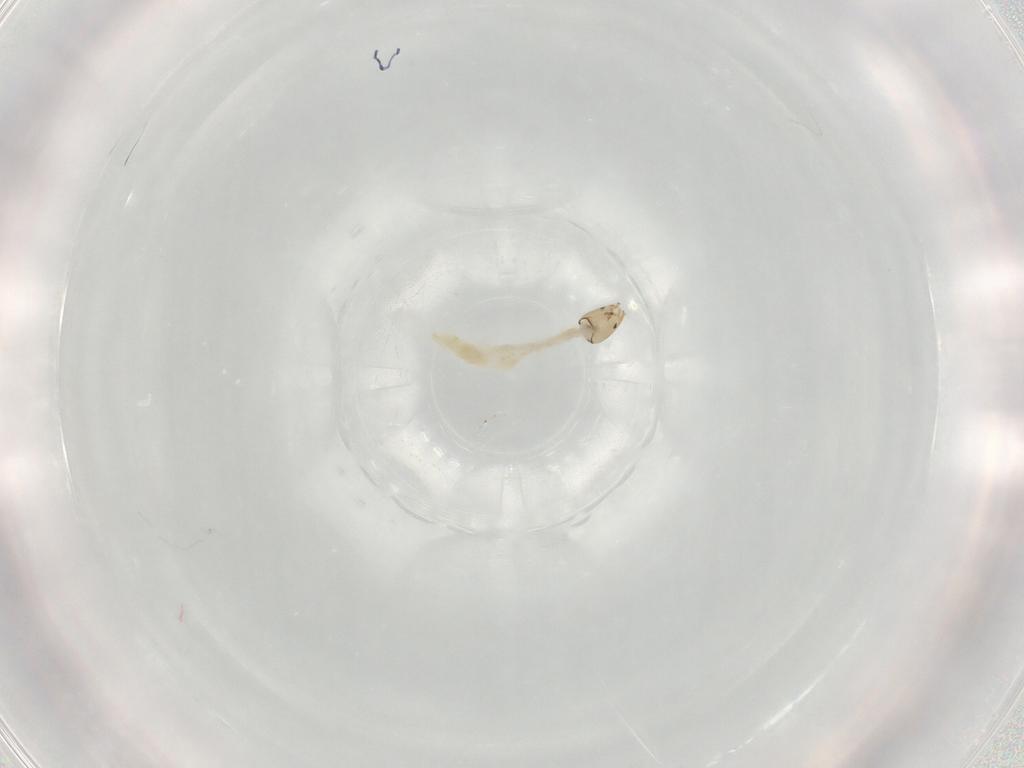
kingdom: Animalia
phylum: Arthropoda
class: Insecta
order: Diptera
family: Chironomidae
